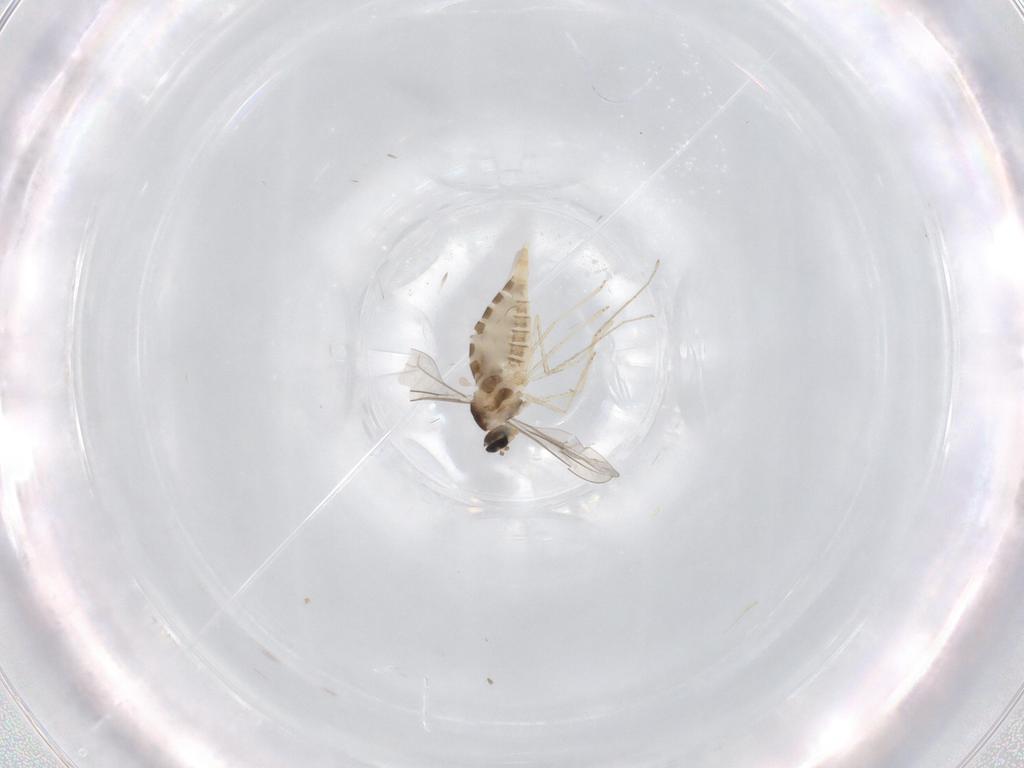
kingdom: Animalia
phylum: Arthropoda
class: Insecta
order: Diptera
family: Cecidomyiidae
